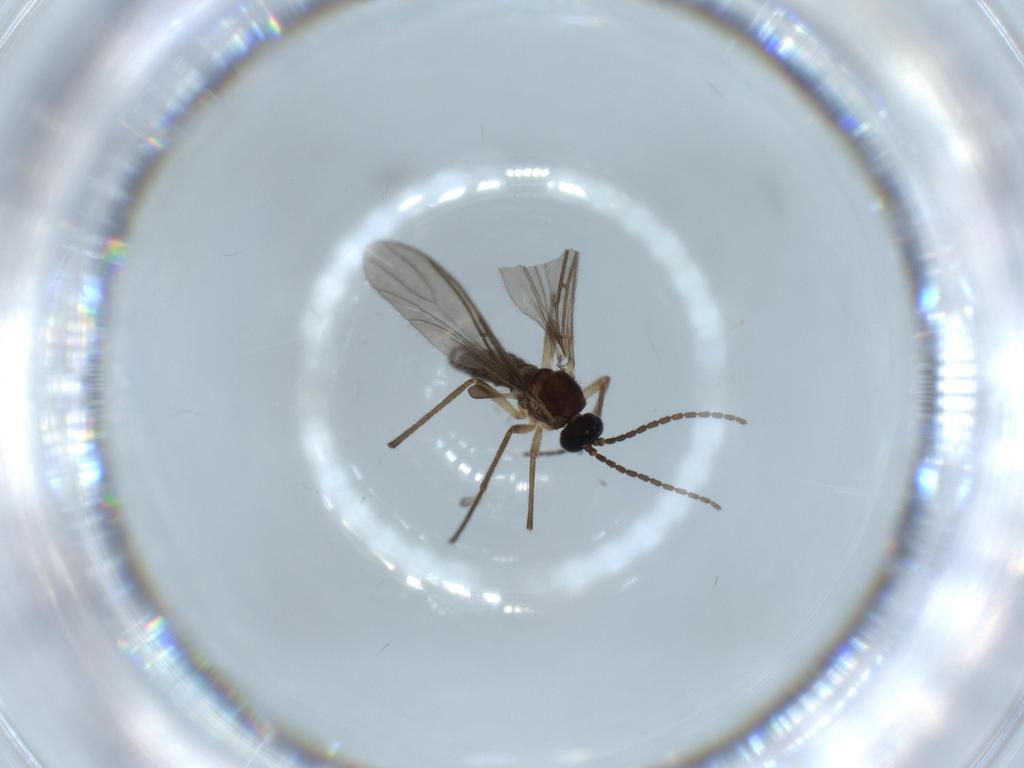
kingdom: Animalia
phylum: Arthropoda
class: Insecta
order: Diptera
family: Sciaridae
